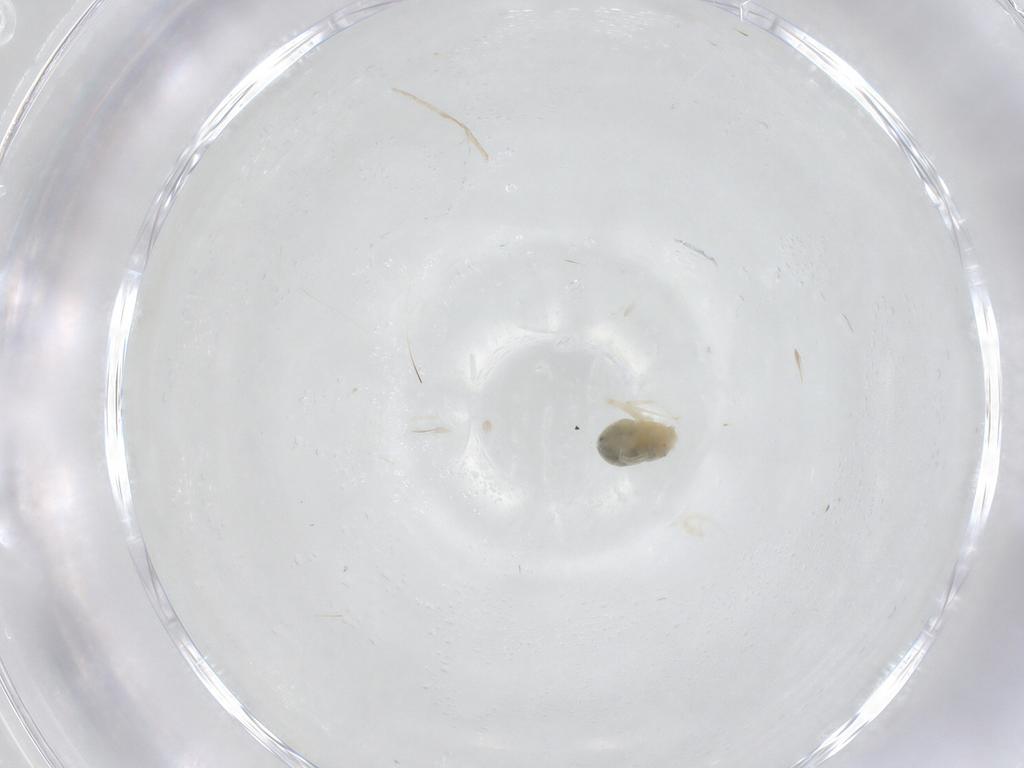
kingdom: Animalia
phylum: Arthropoda
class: Arachnida
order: Trombidiformes
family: Anystidae
